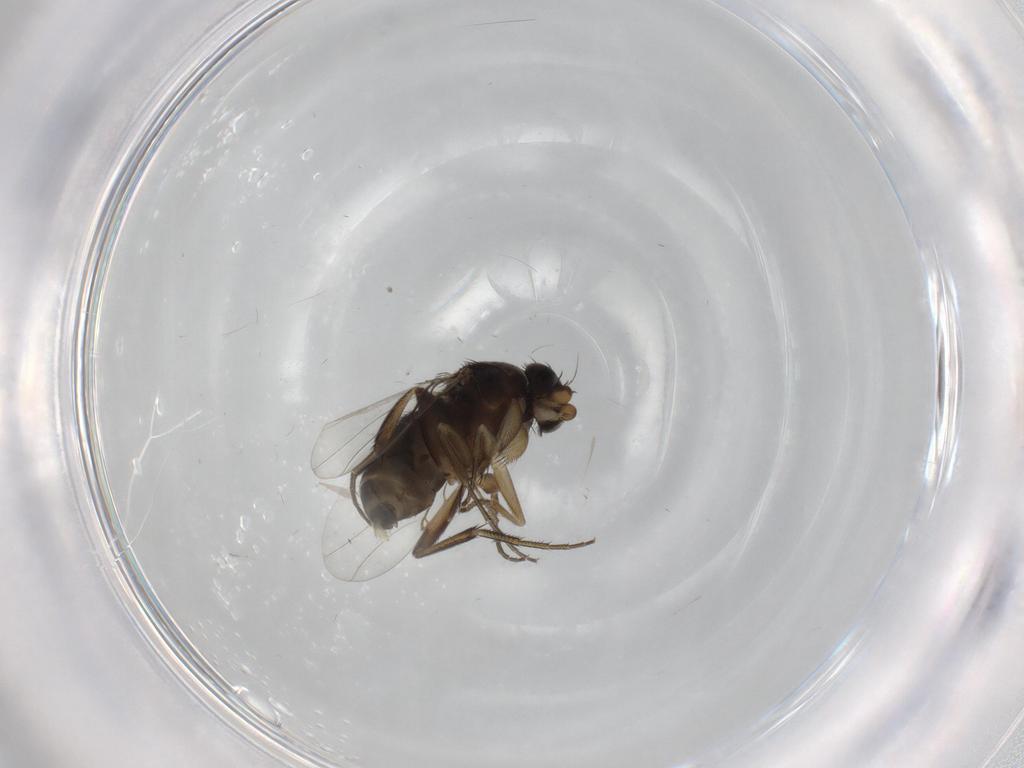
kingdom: Animalia
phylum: Arthropoda
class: Insecta
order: Diptera
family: Phoridae
